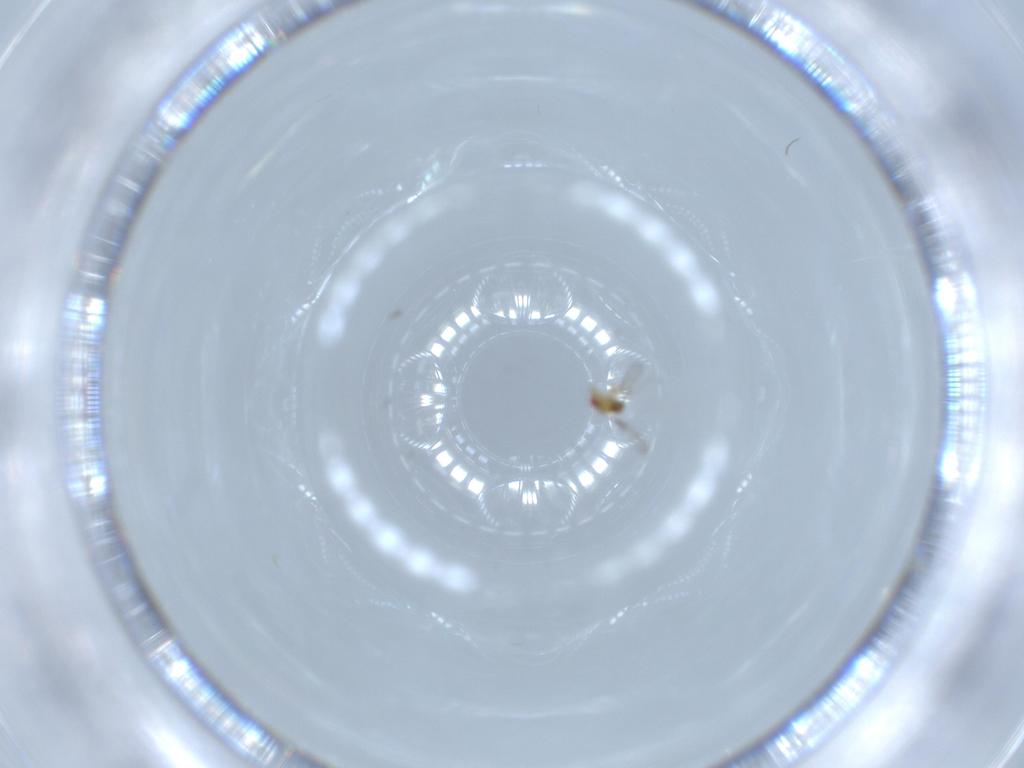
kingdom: Animalia
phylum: Arthropoda
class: Insecta
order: Hymenoptera
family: Trichogrammatidae
